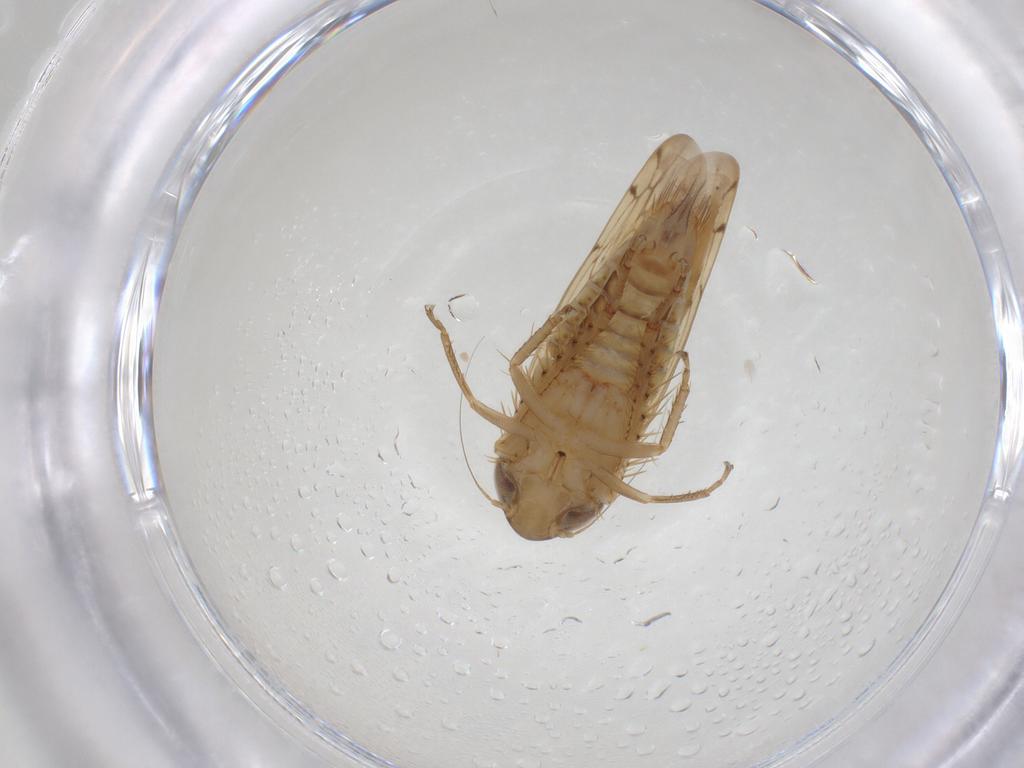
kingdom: Animalia
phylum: Arthropoda
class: Insecta
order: Hemiptera
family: Cicadellidae
